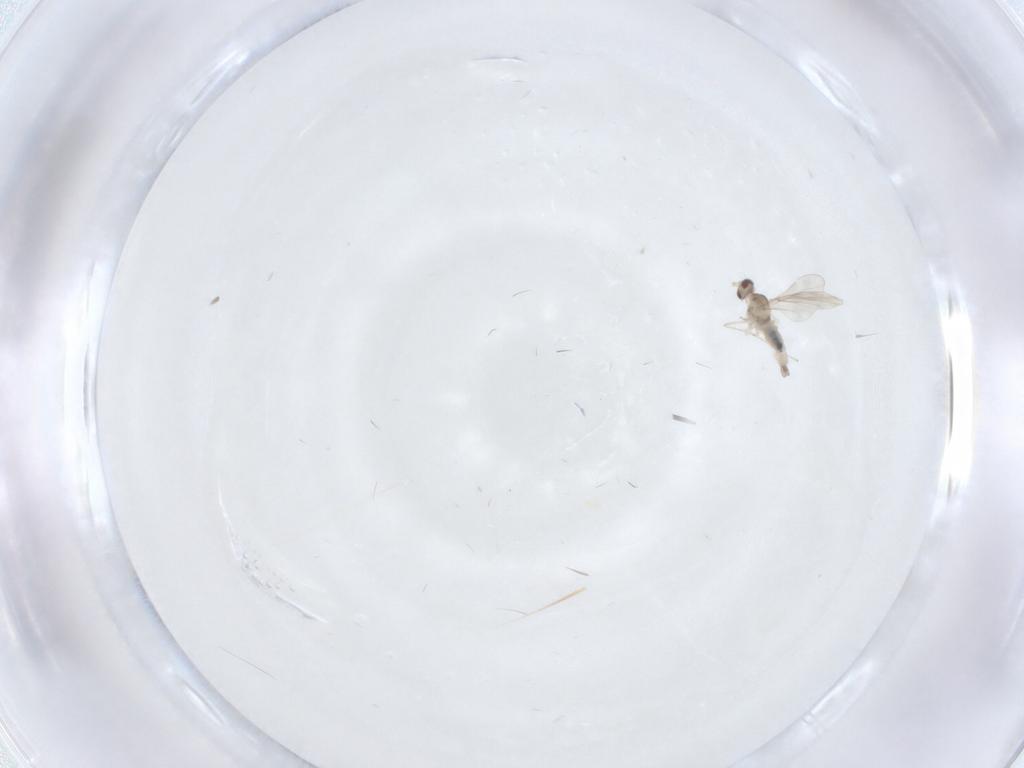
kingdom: Animalia
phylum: Arthropoda
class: Insecta
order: Diptera
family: Cecidomyiidae
